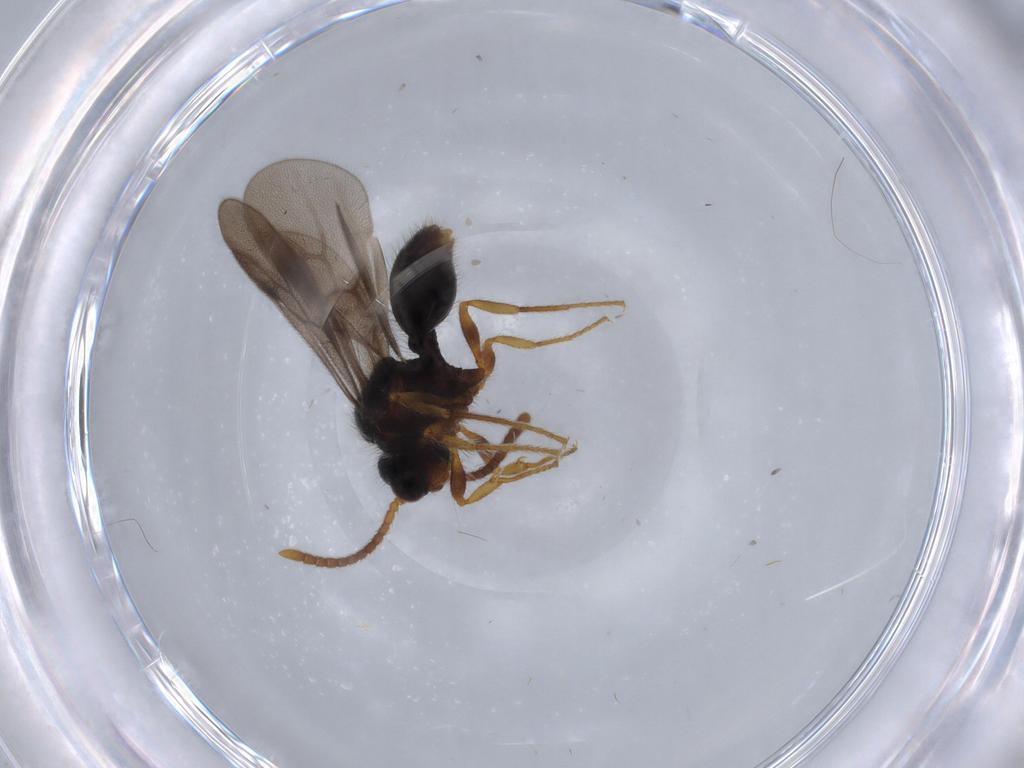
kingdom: Animalia
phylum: Arthropoda
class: Insecta
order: Hymenoptera
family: Formicidae
